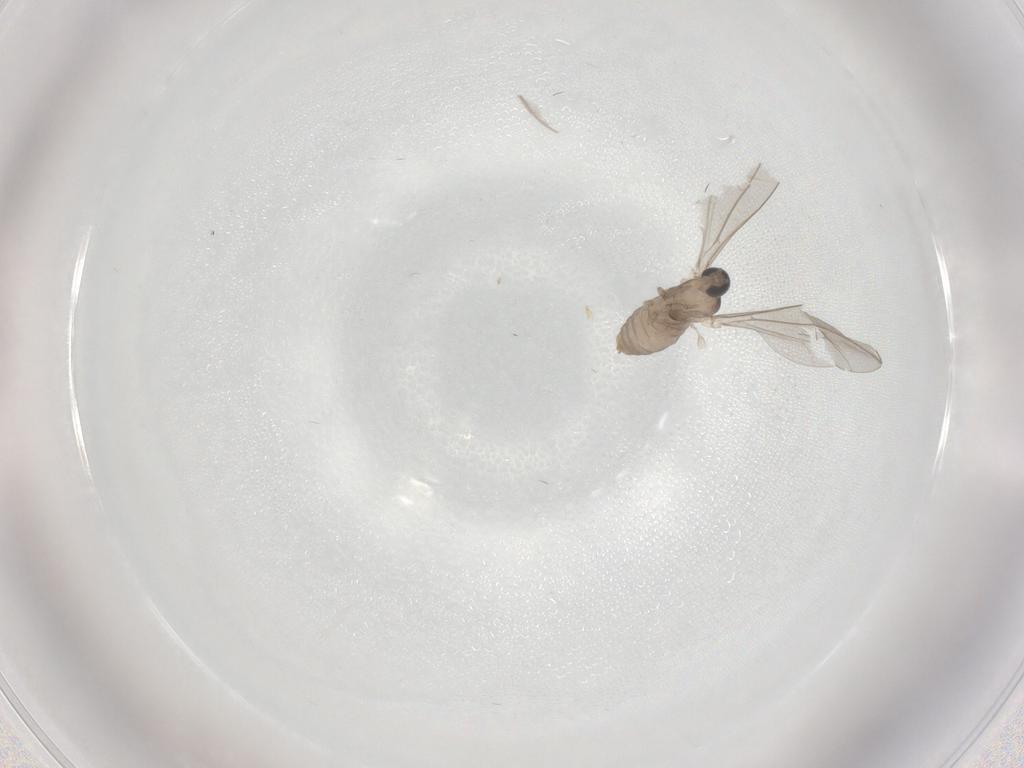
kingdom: Animalia
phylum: Arthropoda
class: Insecta
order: Diptera
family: Cecidomyiidae
